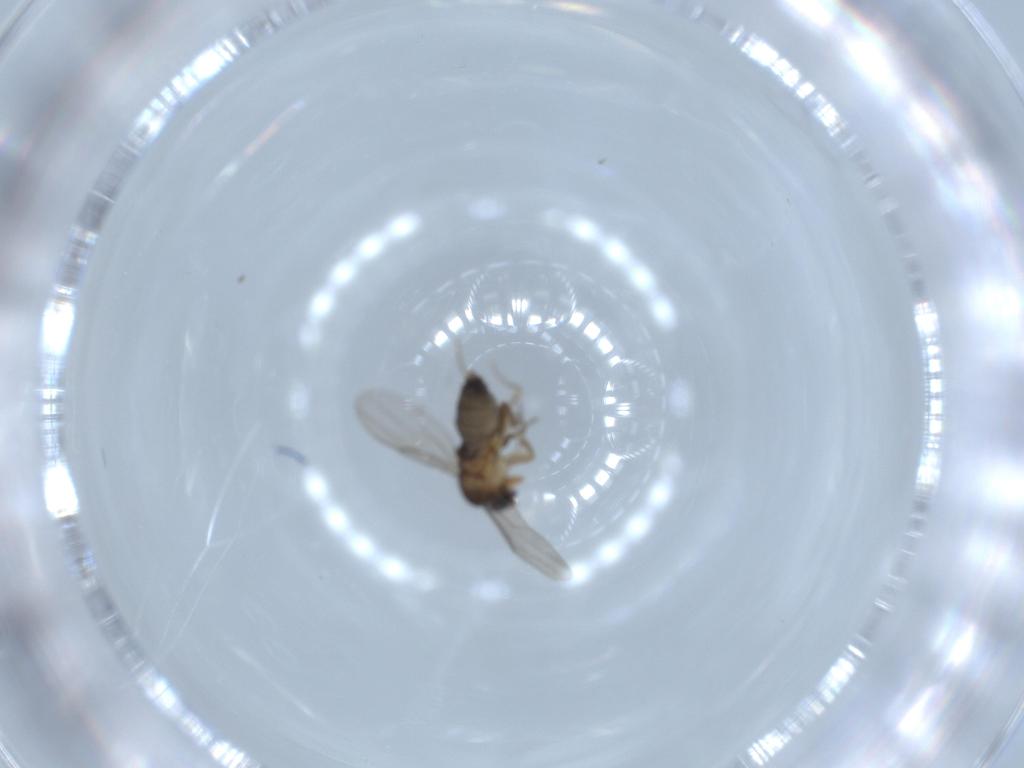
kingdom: Animalia
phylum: Arthropoda
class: Insecta
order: Diptera
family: Phoridae
